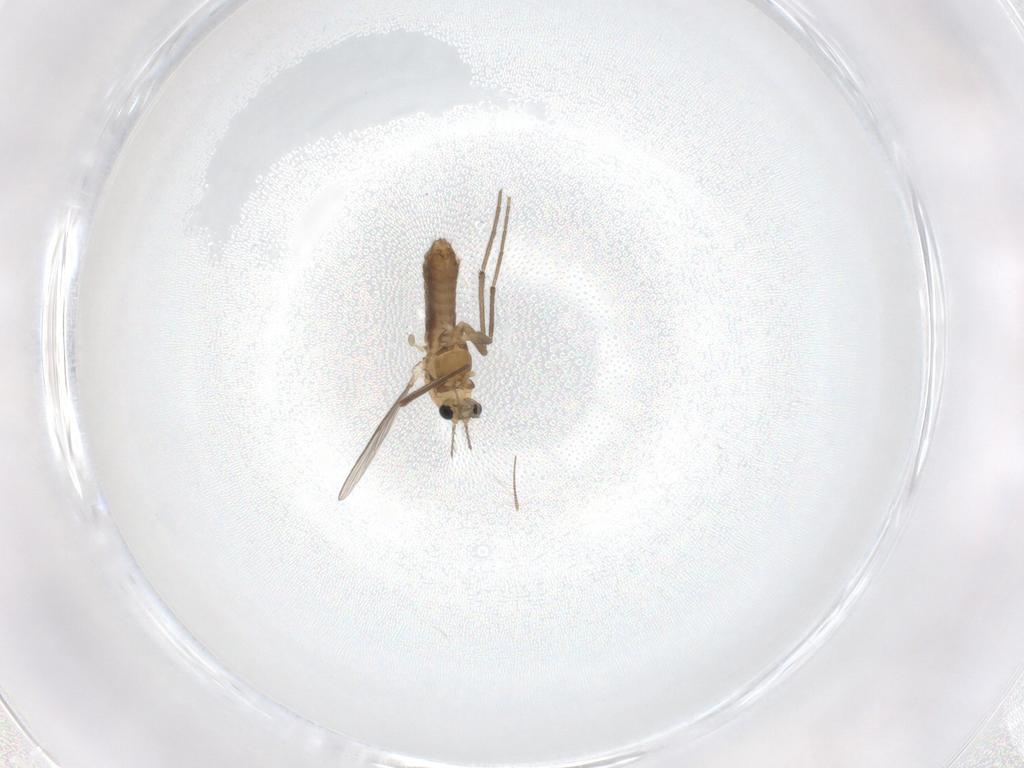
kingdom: Animalia
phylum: Arthropoda
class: Insecta
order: Diptera
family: Chironomidae
